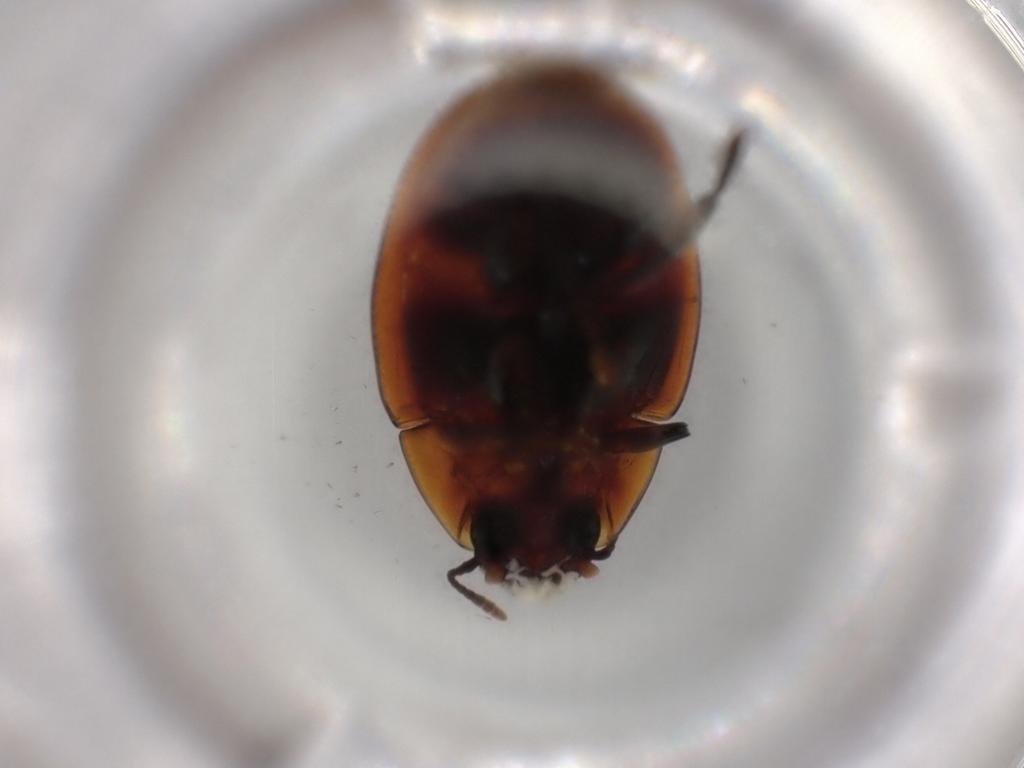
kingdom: Animalia
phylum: Arthropoda
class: Insecta
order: Coleoptera
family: Zopheridae
